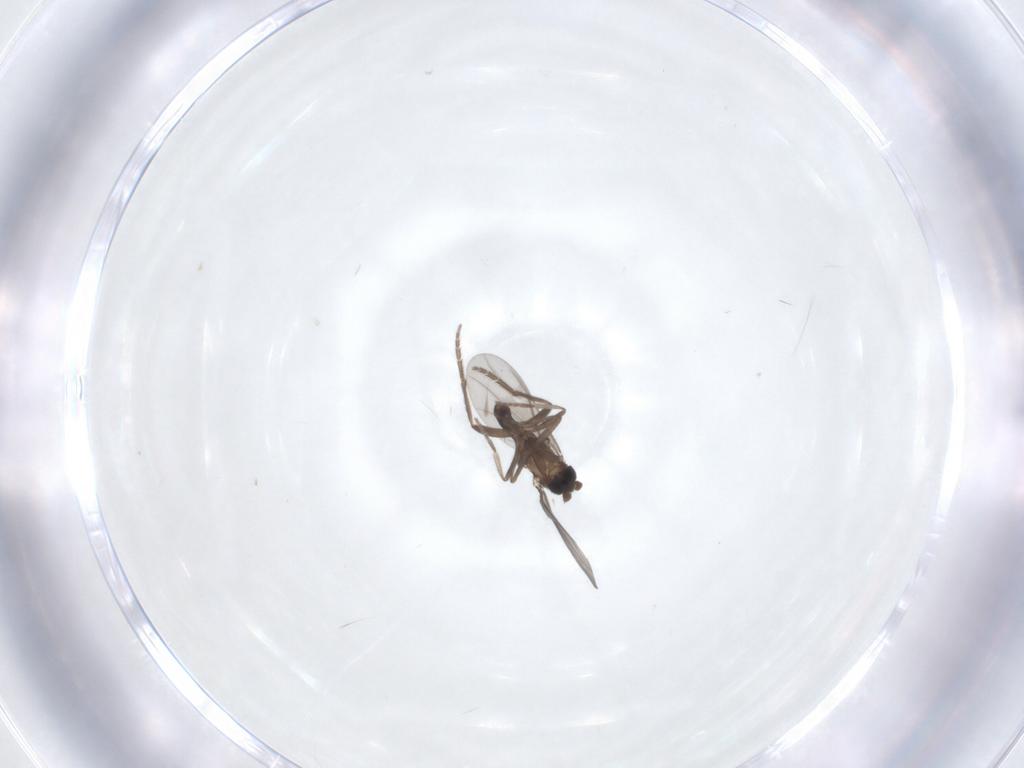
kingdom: Animalia
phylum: Arthropoda
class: Insecta
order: Diptera
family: Phoridae
